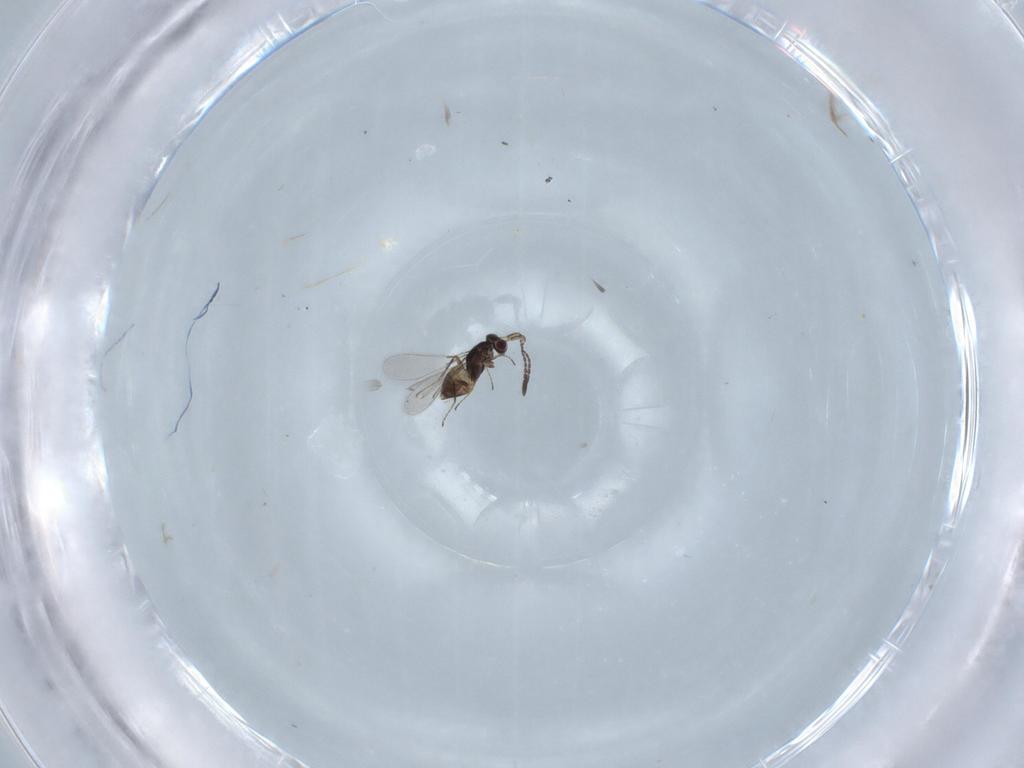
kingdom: Animalia
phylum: Arthropoda
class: Insecta
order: Hymenoptera
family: Mymaridae
